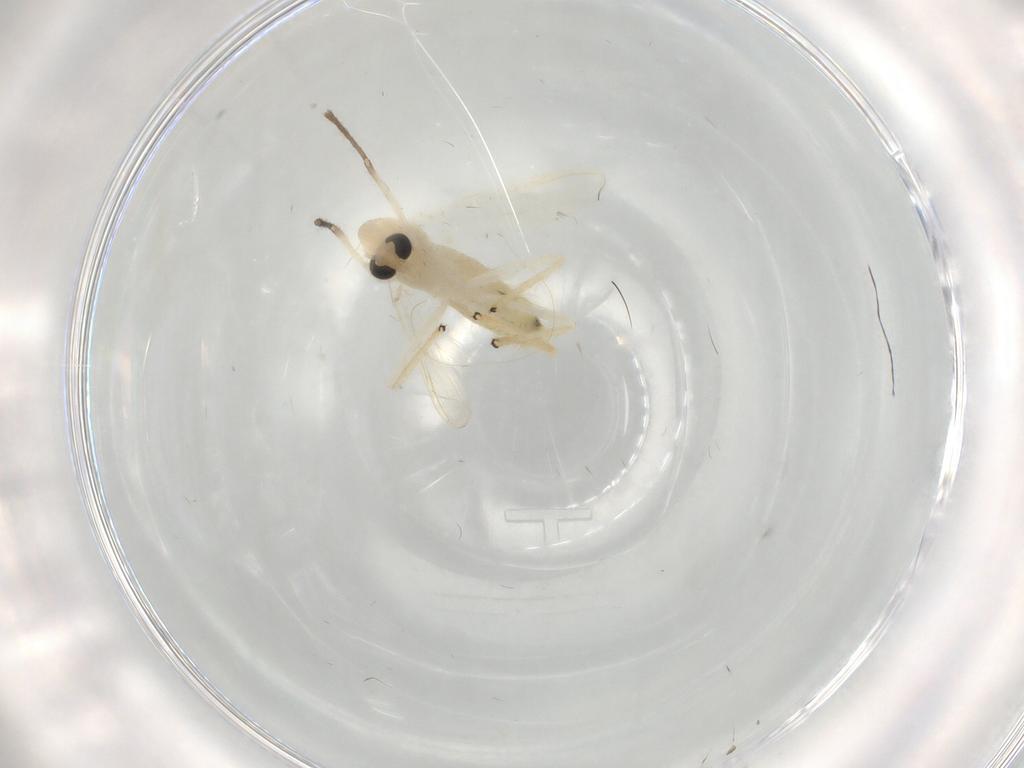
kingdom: Animalia
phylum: Arthropoda
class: Insecta
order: Diptera
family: Chironomidae
